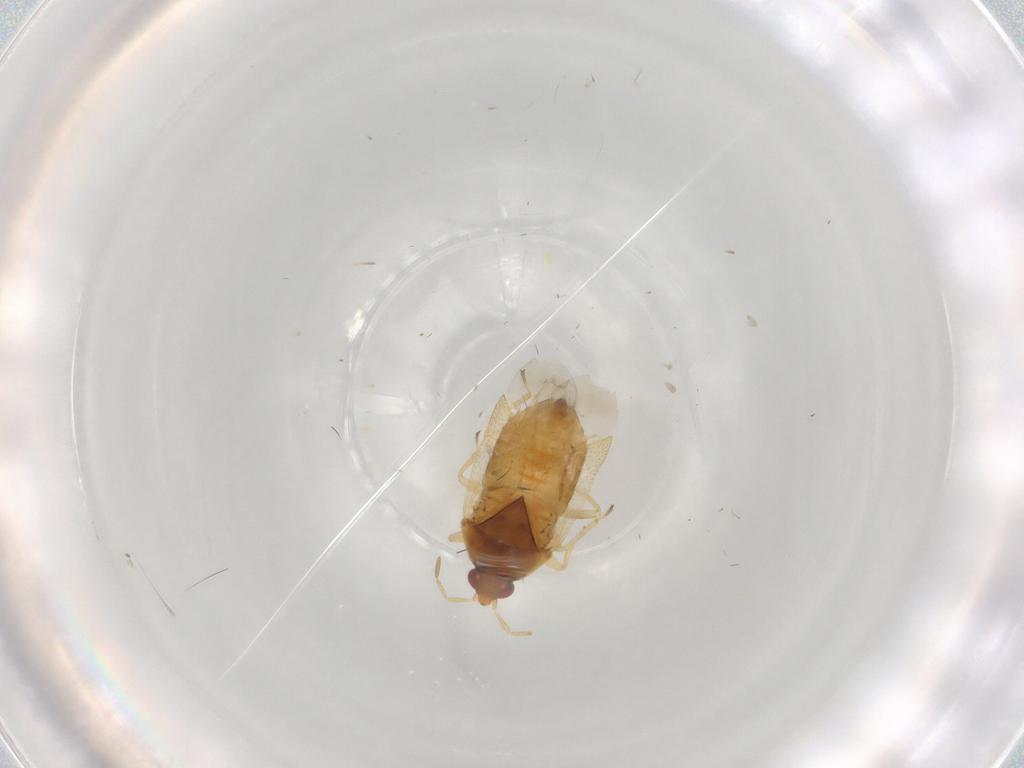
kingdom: Animalia
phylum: Arthropoda
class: Insecta
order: Hemiptera
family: Anthocoridae
